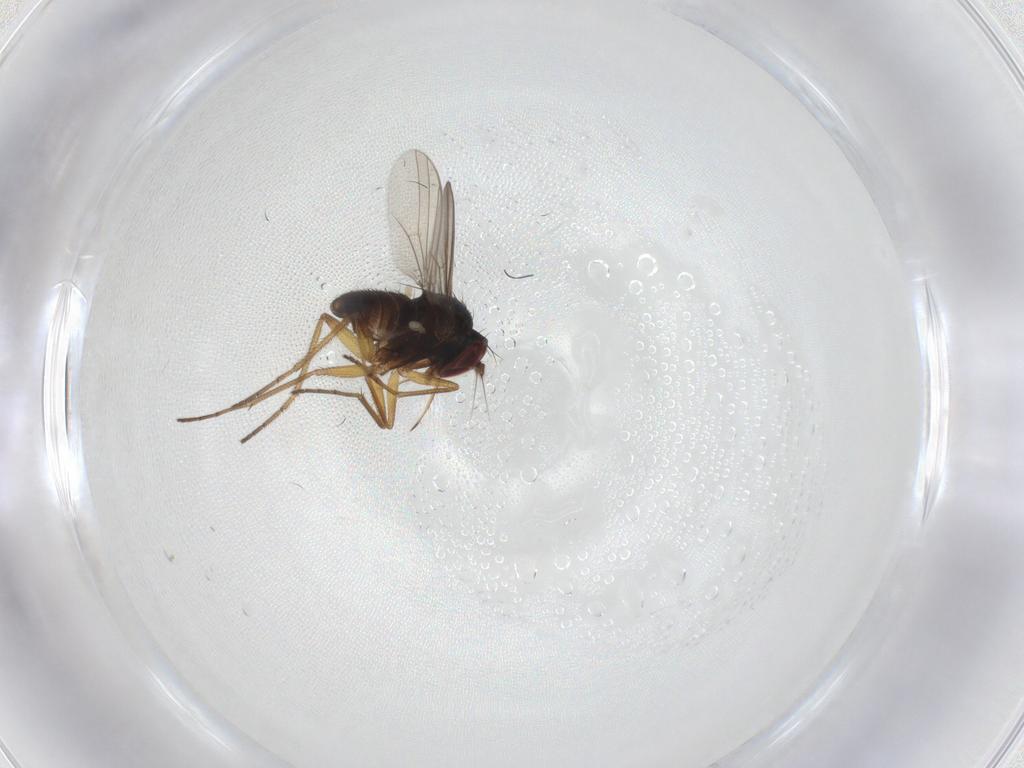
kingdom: Animalia
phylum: Arthropoda
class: Insecta
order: Diptera
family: Dolichopodidae
